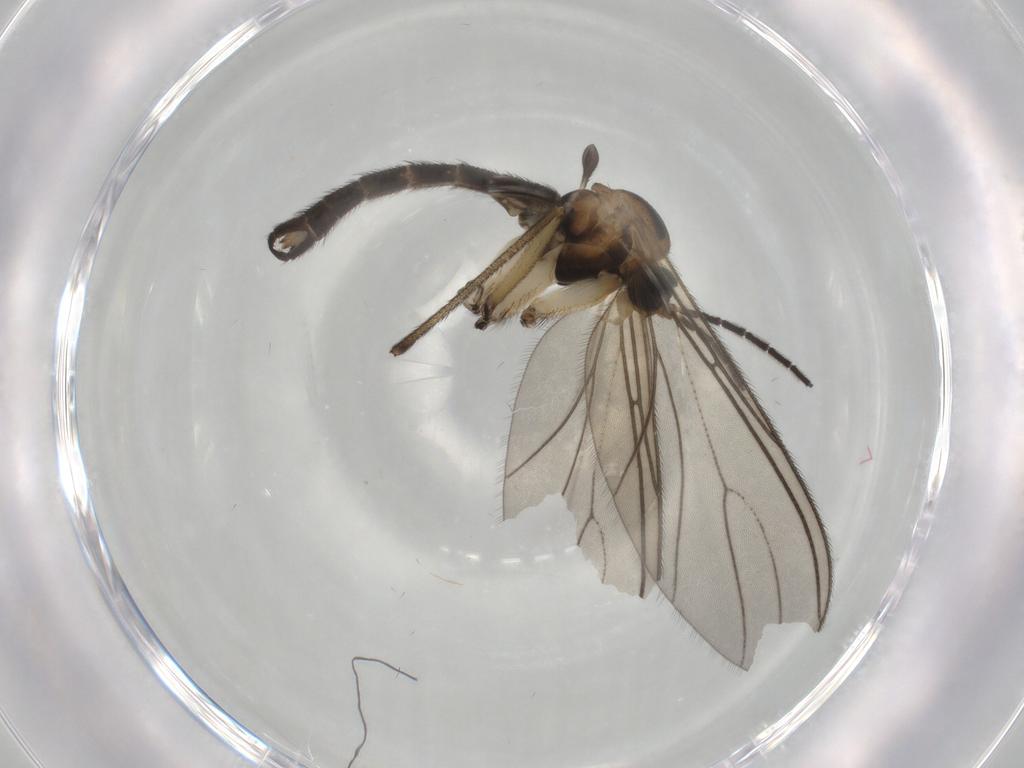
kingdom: Animalia
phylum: Arthropoda
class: Insecta
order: Diptera
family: Sciaridae
